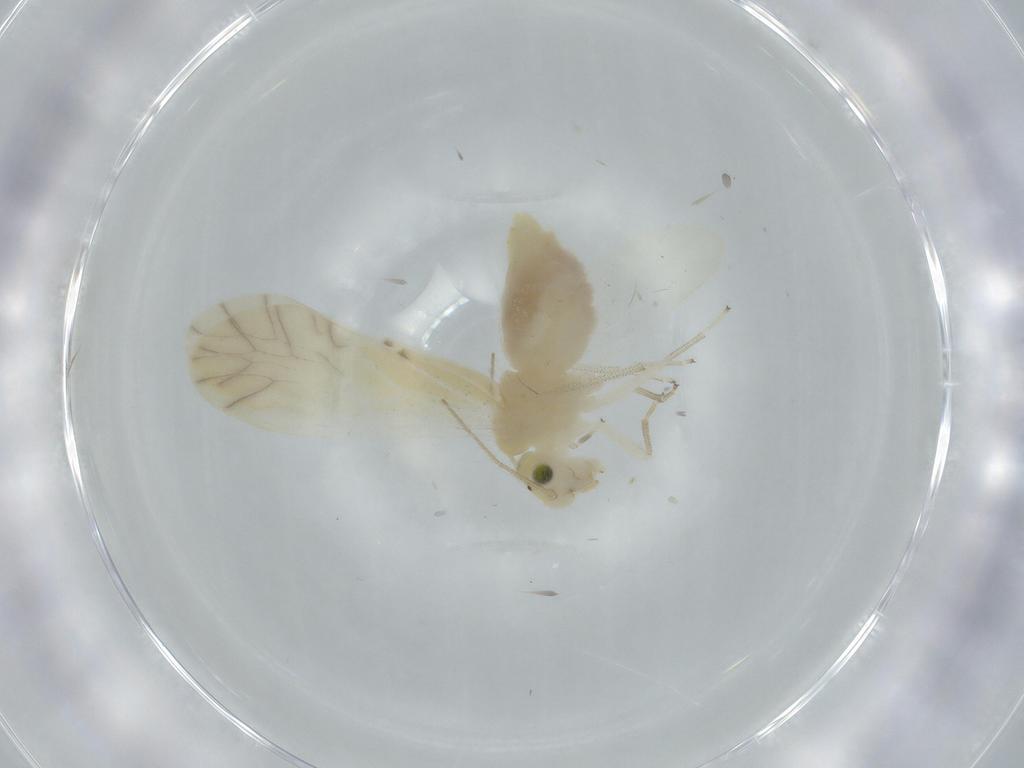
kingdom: Animalia
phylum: Arthropoda
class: Insecta
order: Psocodea
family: Caeciliusidae
